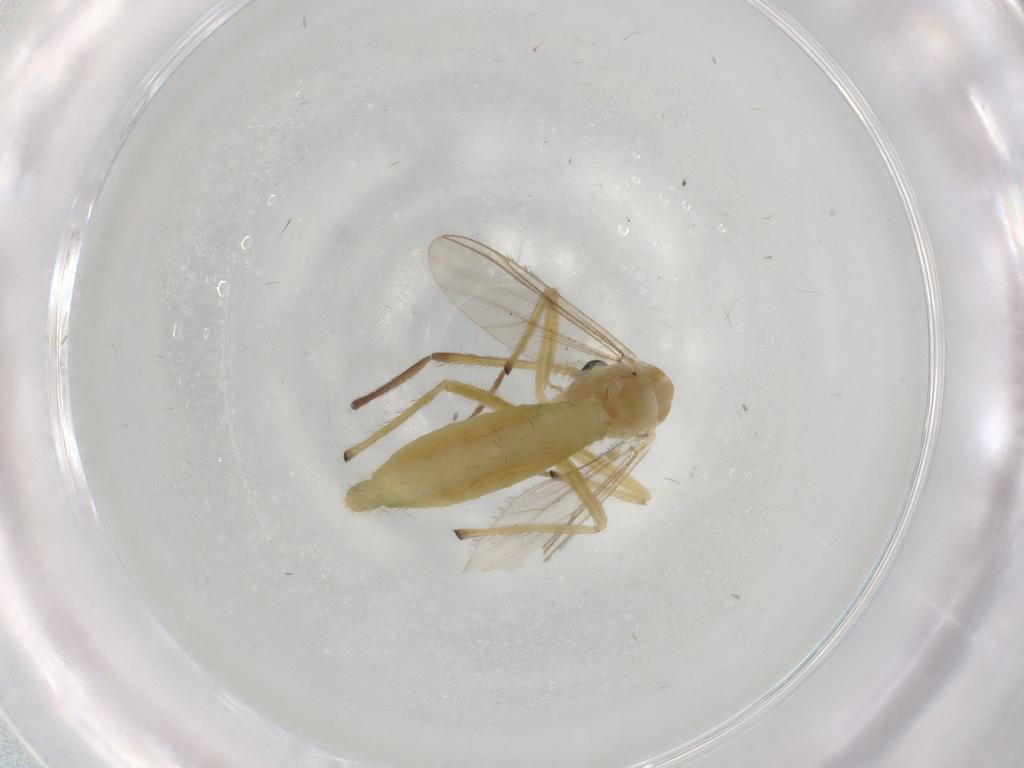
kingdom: Animalia
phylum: Arthropoda
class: Insecta
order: Diptera
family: Chironomidae
